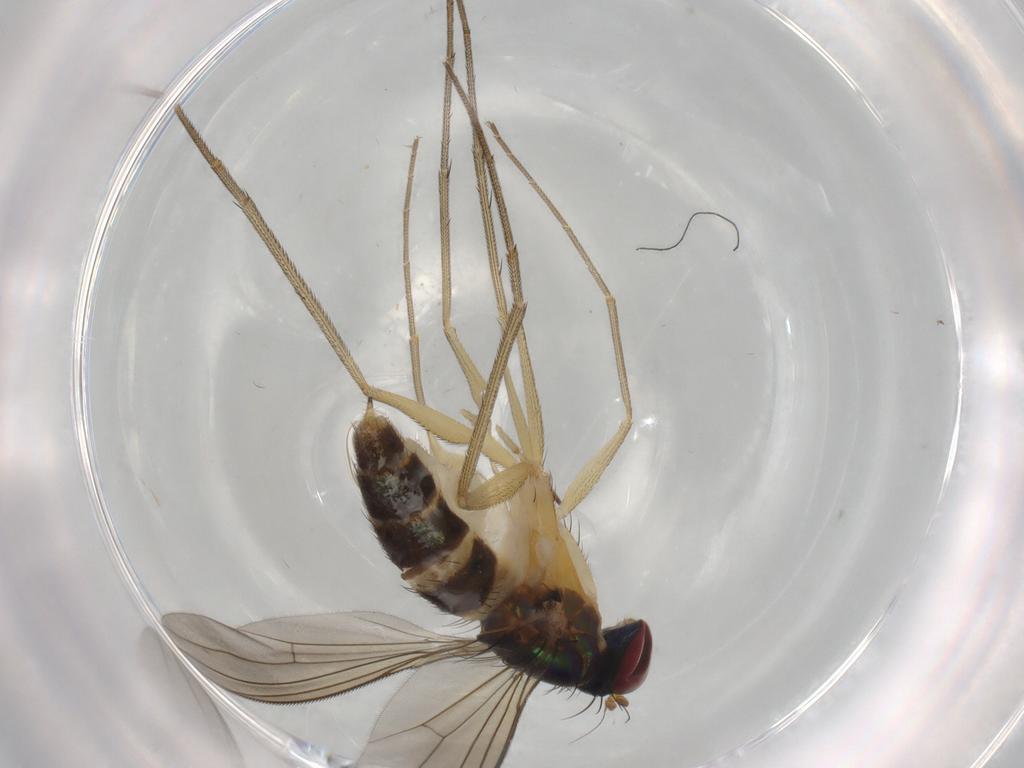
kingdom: Animalia
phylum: Arthropoda
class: Insecta
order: Diptera
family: Dolichopodidae
